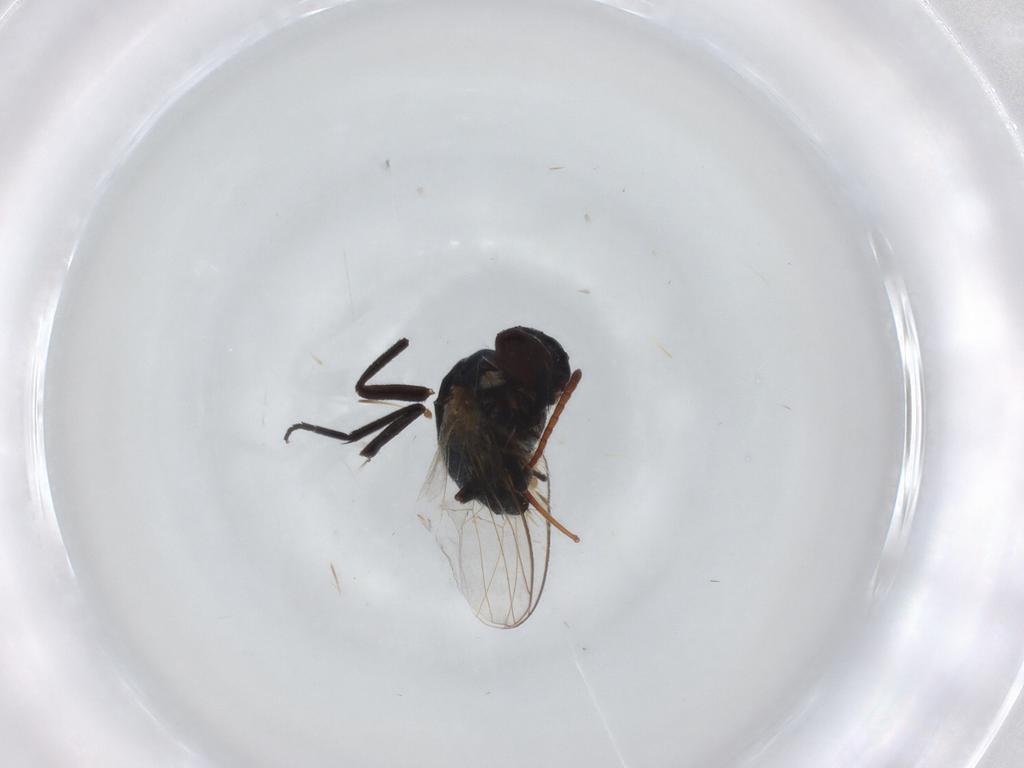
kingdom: Animalia
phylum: Arthropoda
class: Insecta
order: Diptera
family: Agromyzidae
